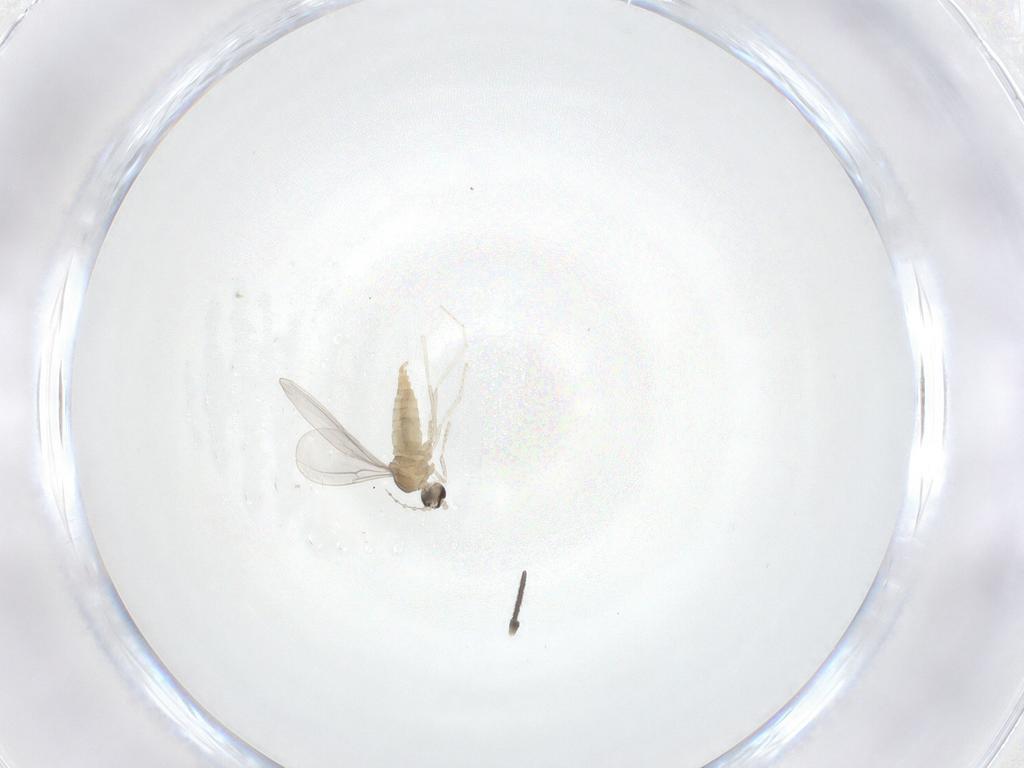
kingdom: Animalia
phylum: Arthropoda
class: Insecta
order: Diptera
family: Cecidomyiidae
